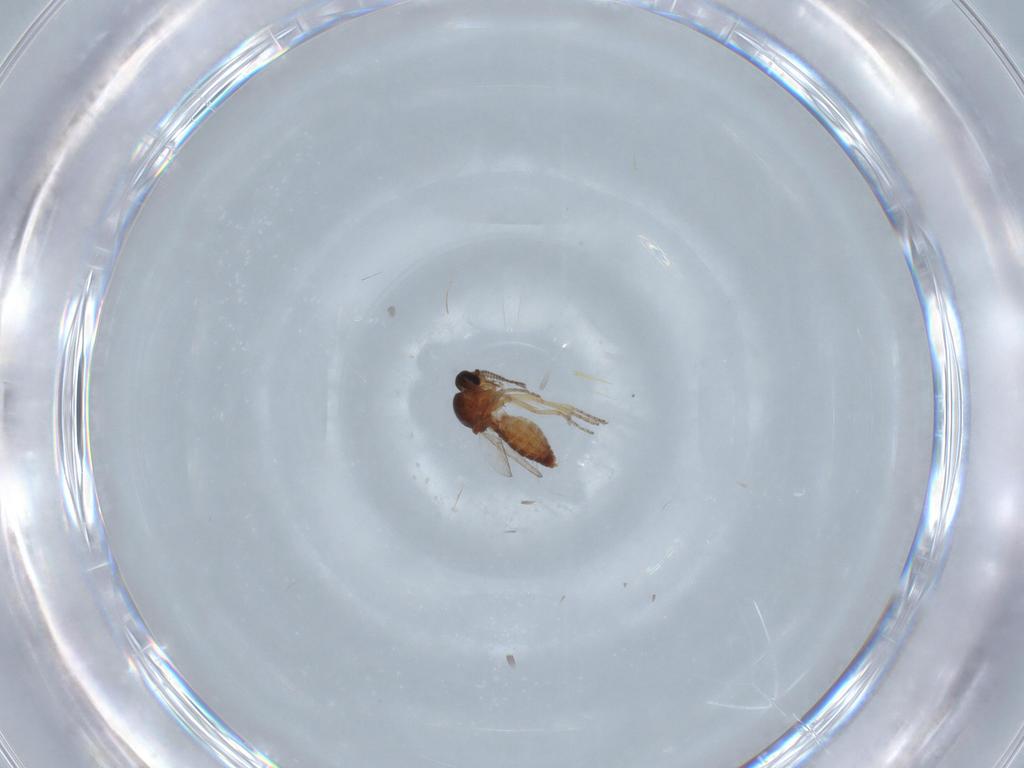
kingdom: Animalia
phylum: Arthropoda
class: Insecta
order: Diptera
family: Ceratopogonidae
